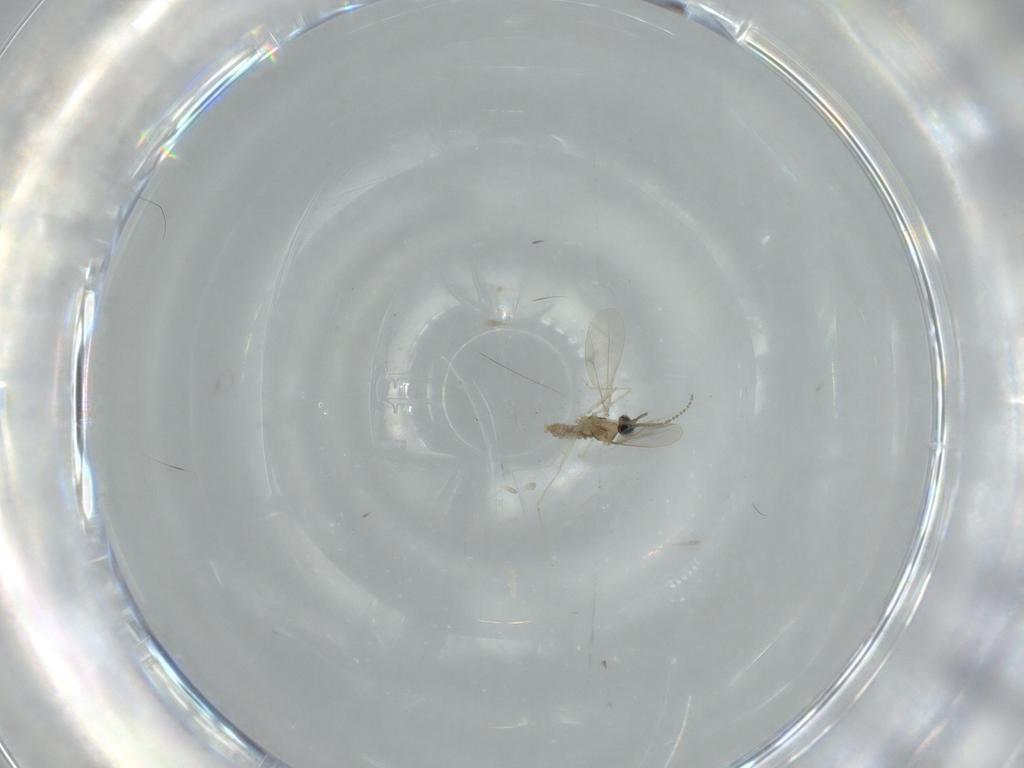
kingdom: Animalia
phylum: Arthropoda
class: Insecta
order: Diptera
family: Cecidomyiidae
